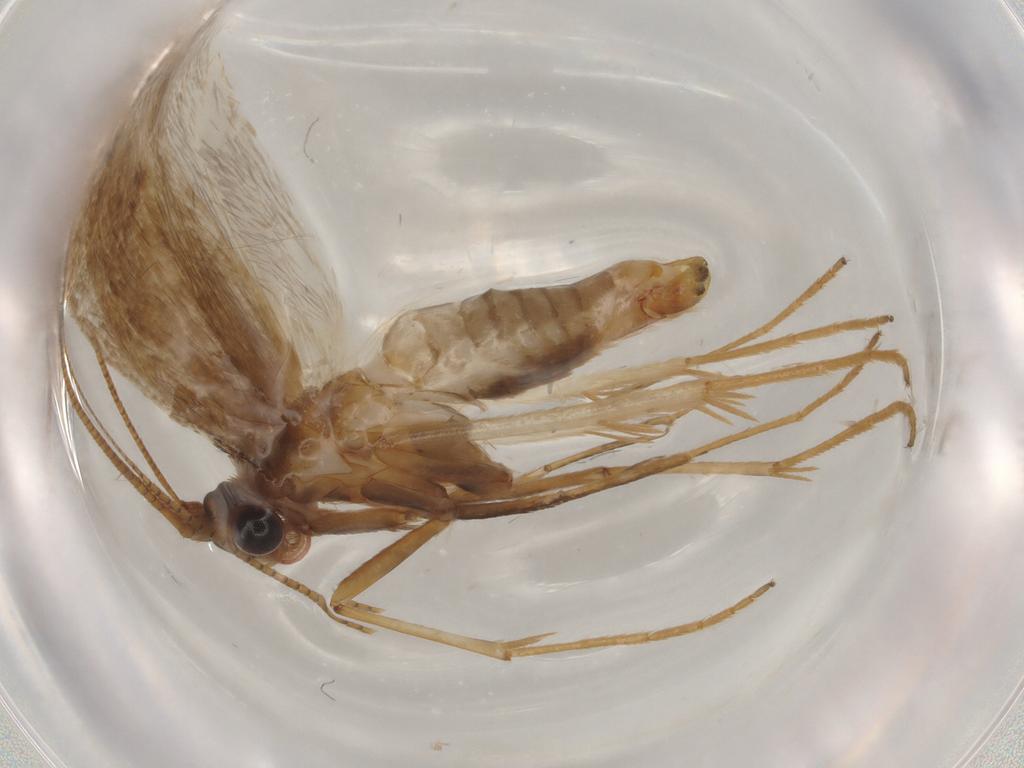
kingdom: Animalia
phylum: Arthropoda
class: Insecta
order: Lepidoptera
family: Adelidae
